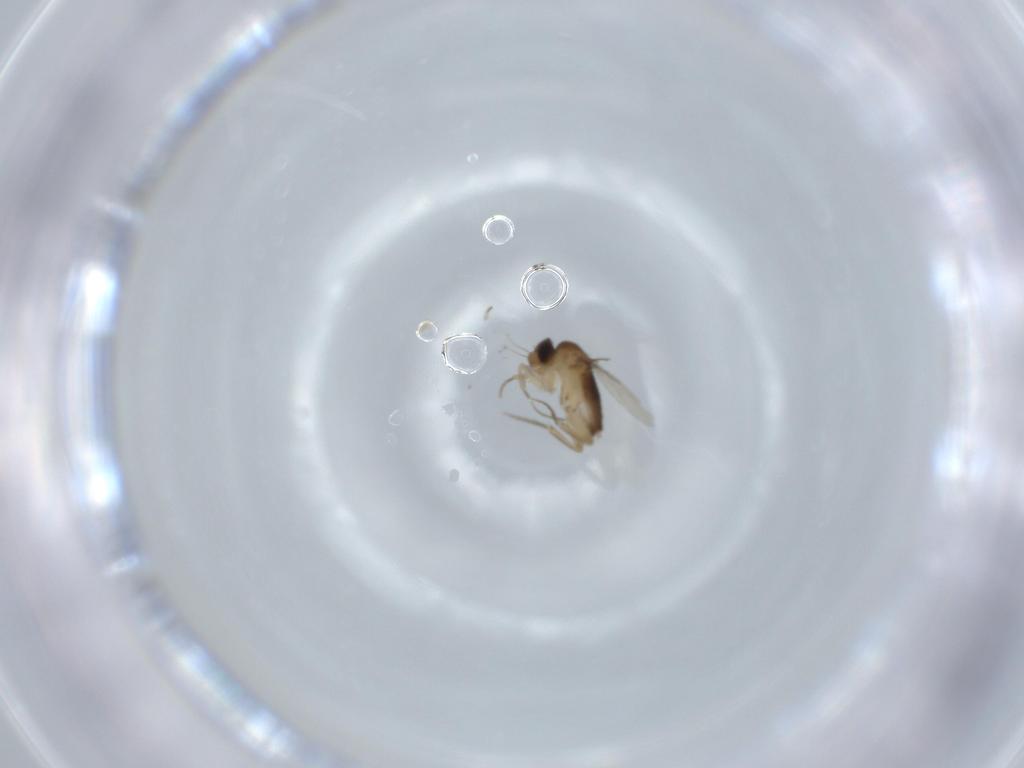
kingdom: Animalia
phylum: Arthropoda
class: Insecta
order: Diptera
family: Phoridae
